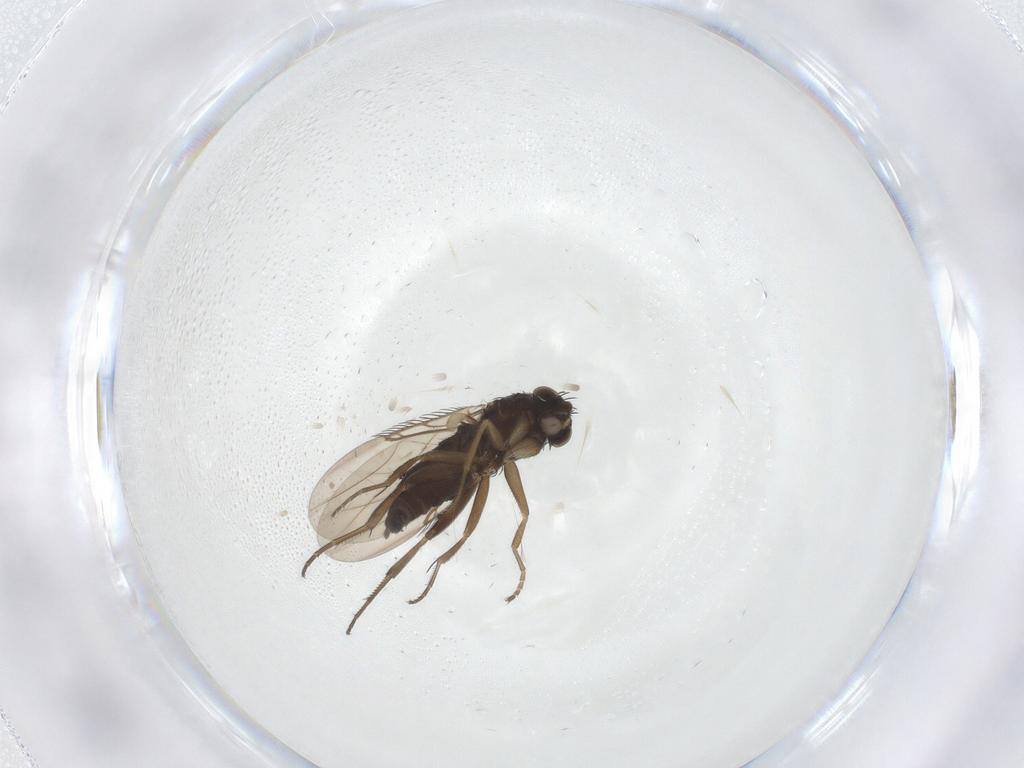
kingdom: Animalia
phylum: Arthropoda
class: Insecta
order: Diptera
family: Phoridae
